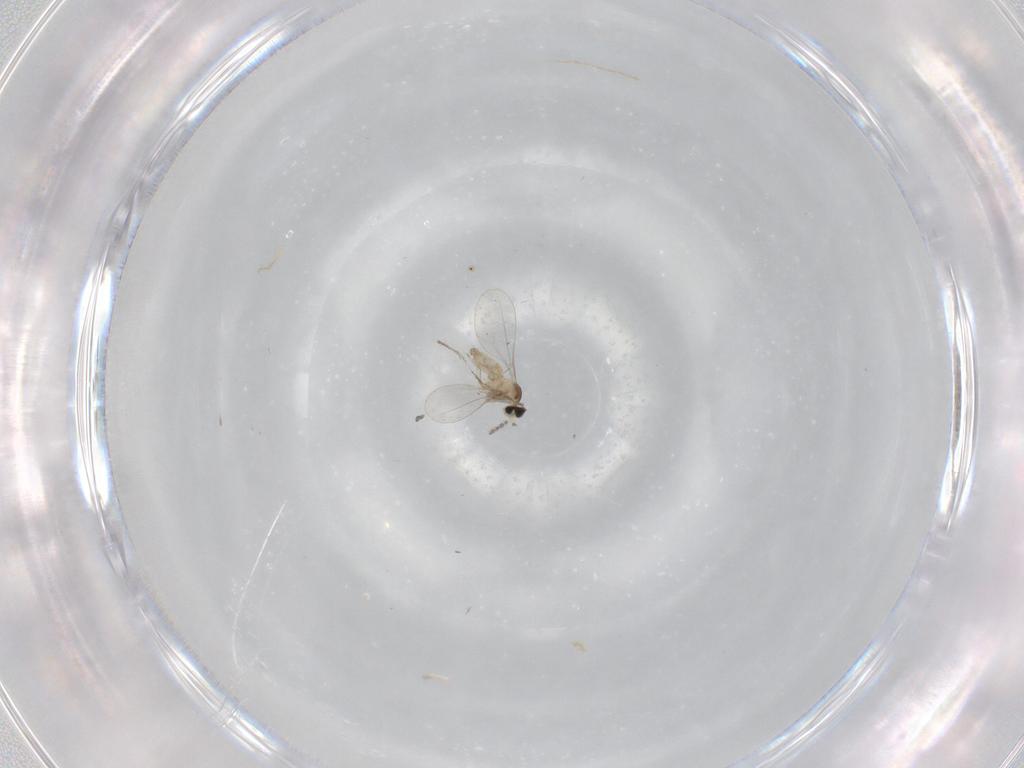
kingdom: Animalia
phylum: Arthropoda
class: Insecta
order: Diptera
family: Cecidomyiidae
